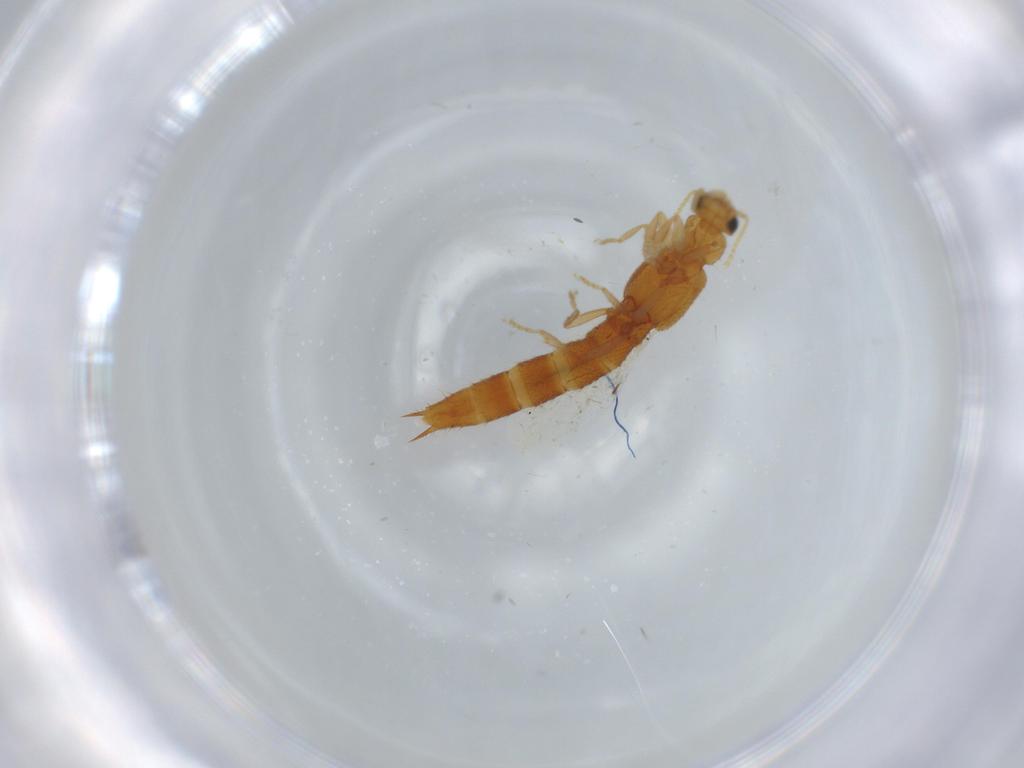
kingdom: Animalia
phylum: Arthropoda
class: Insecta
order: Coleoptera
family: Staphylinidae
